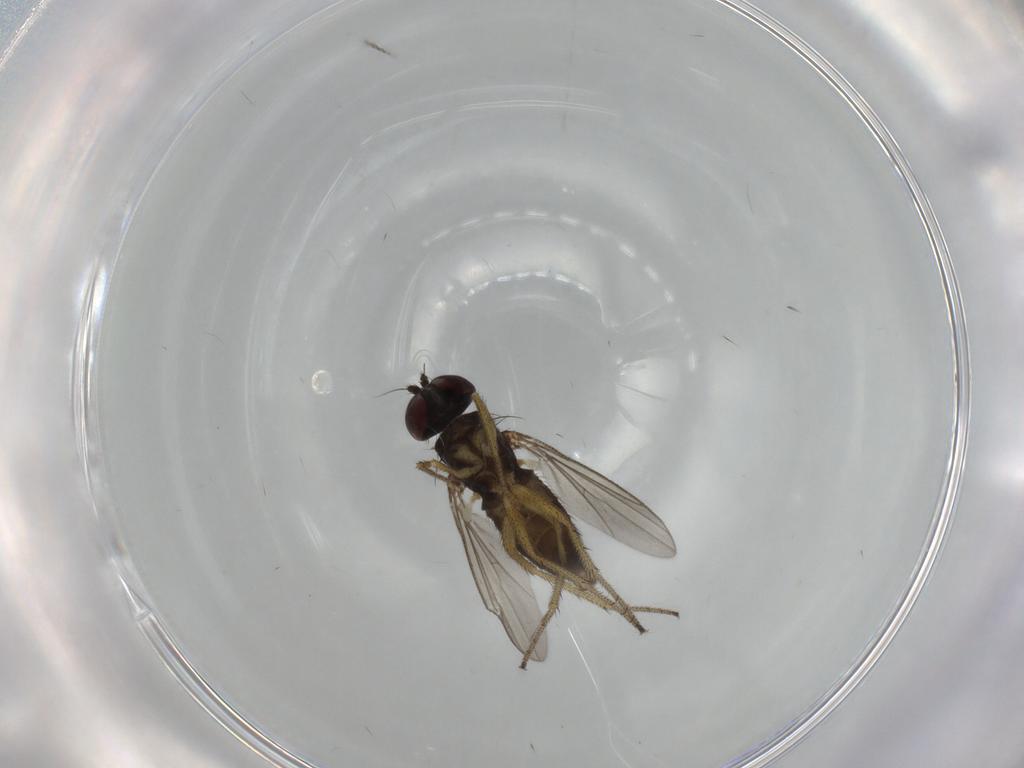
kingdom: Animalia
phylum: Arthropoda
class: Insecta
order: Diptera
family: Dolichopodidae
